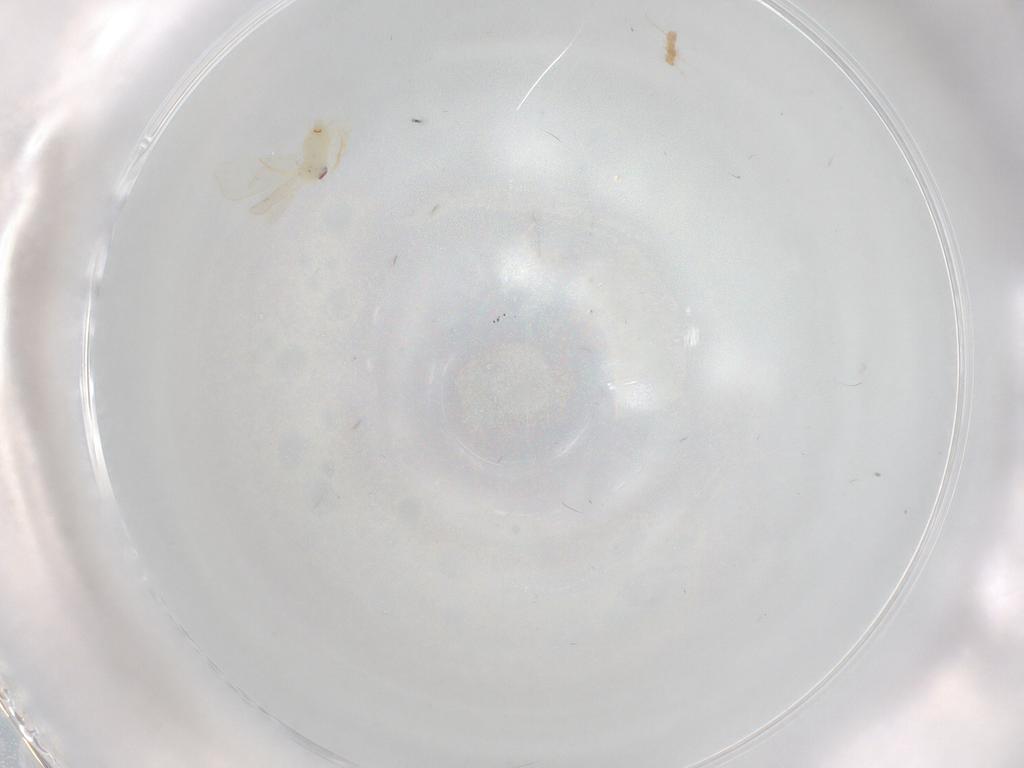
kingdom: Animalia
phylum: Arthropoda
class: Insecta
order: Hemiptera
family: Aleyrodidae
